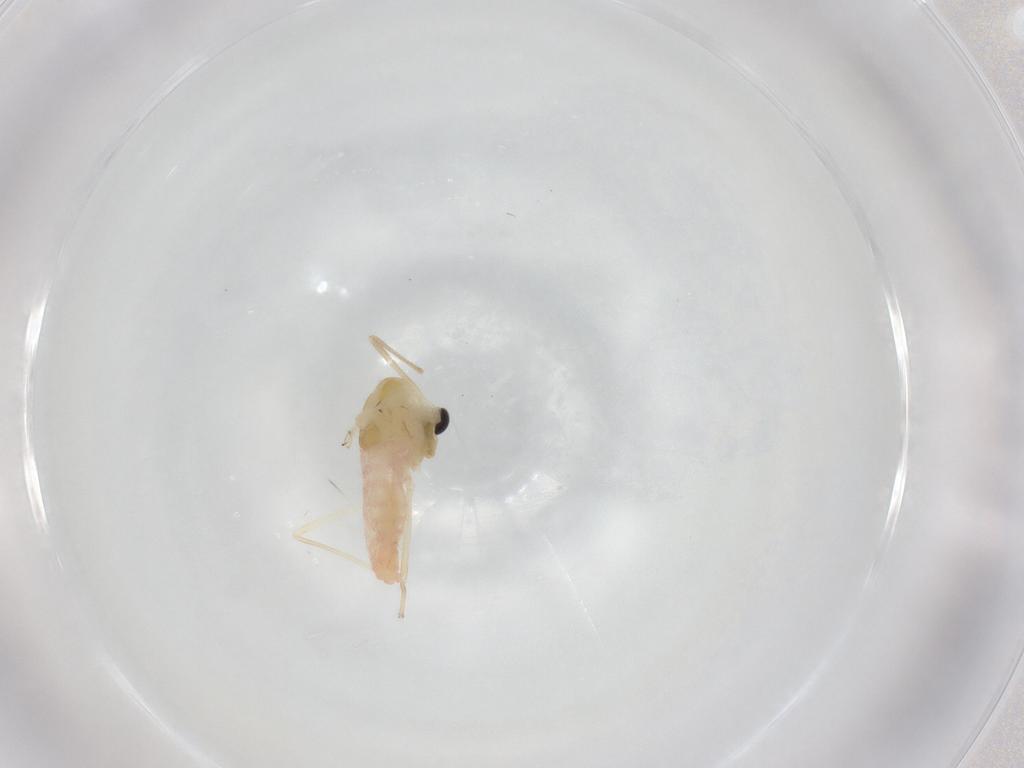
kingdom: Animalia
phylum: Arthropoda
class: Insecta
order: Diptera
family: Chironomidae
